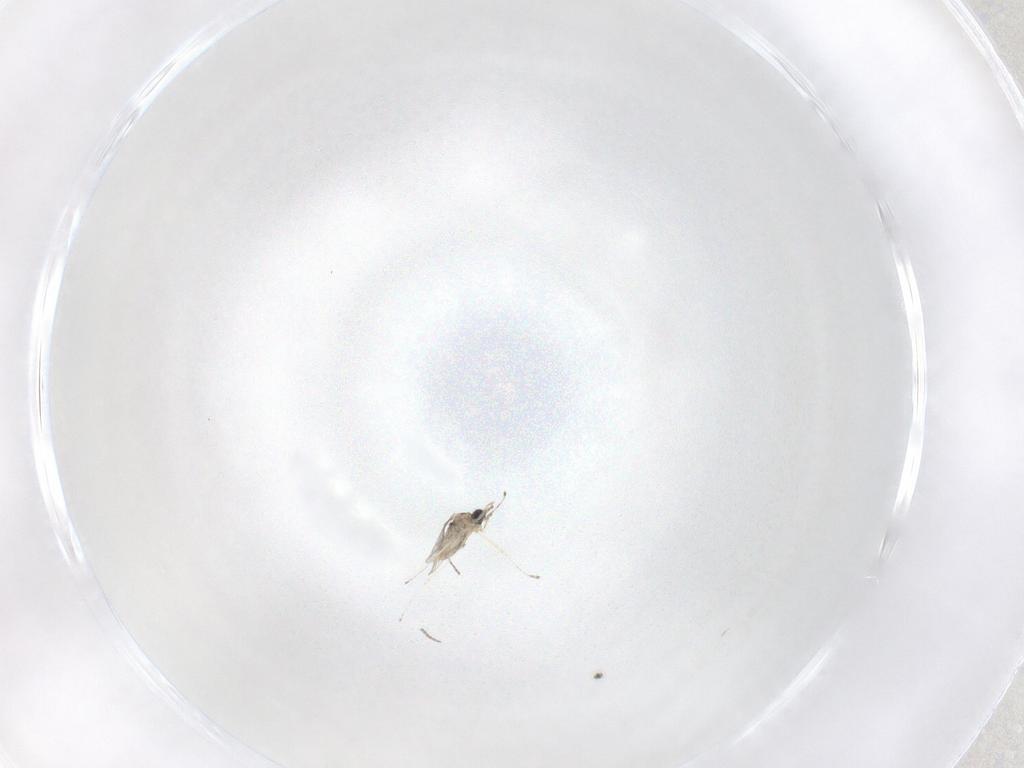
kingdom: Animalia
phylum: Arthropoda
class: Insecta
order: Diptera
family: Cecidomyiidae
